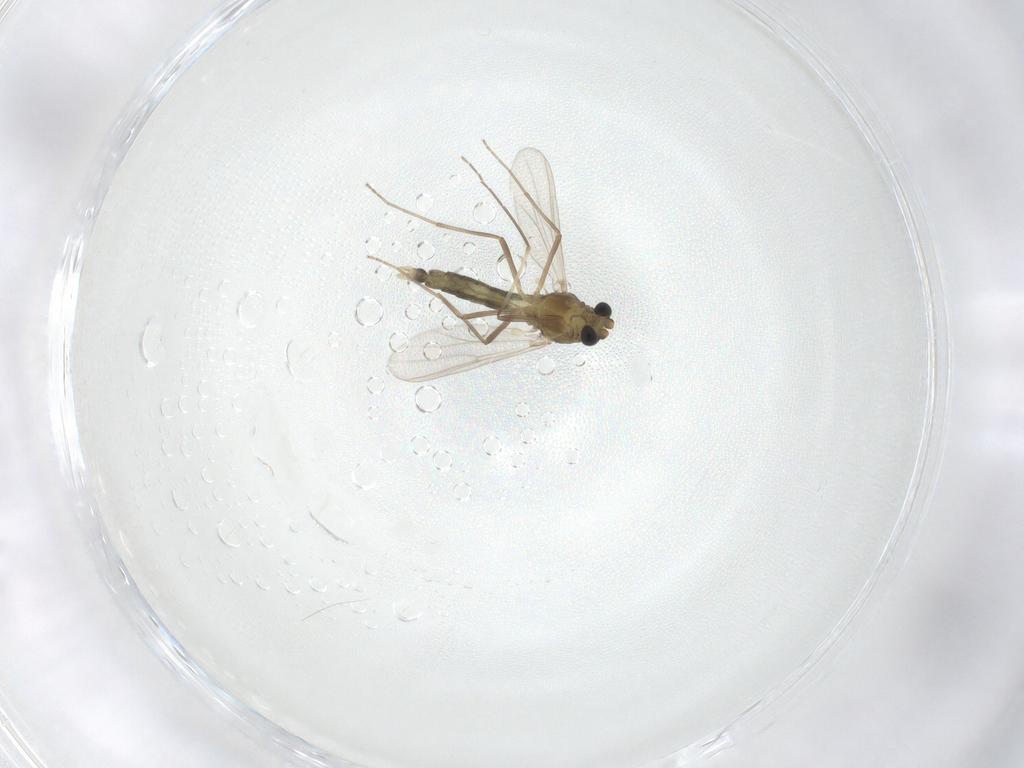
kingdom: Animalia
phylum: Arthropoda
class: Insecta
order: Diptera
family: Chironomidae
